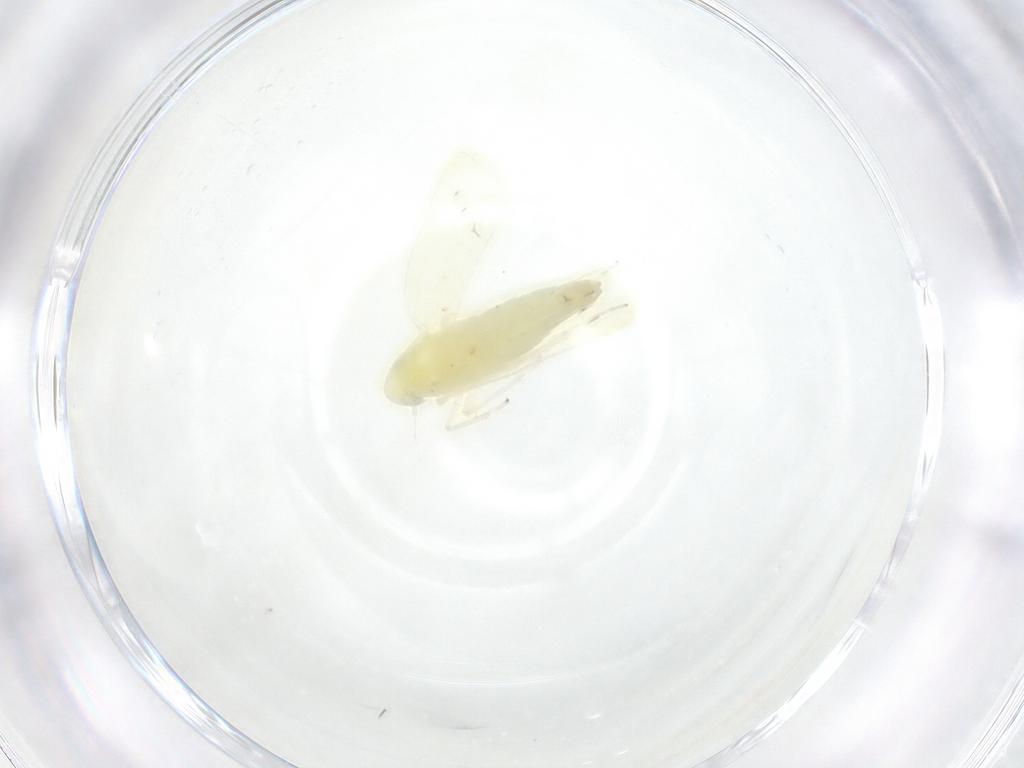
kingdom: Animalia
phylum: Arthropoda
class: Insecta
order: Hemiptera
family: Cicadellidae
